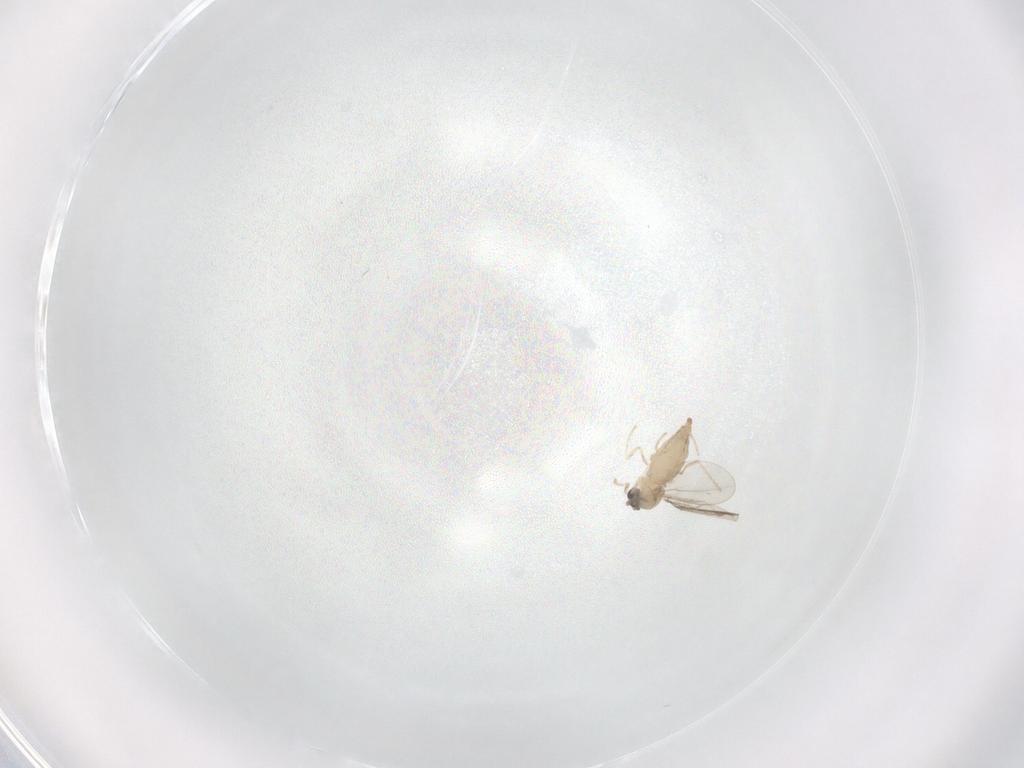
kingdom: Animalia
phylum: Arthropoda
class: Insecta
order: Diptera
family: Cecidomyiidae
